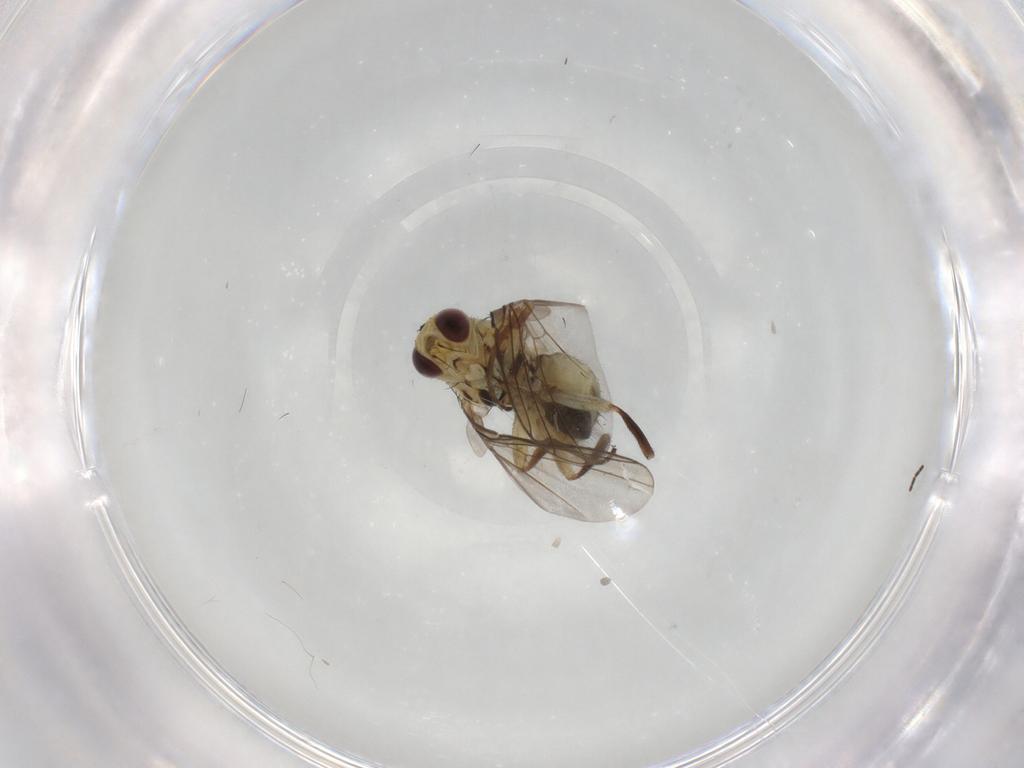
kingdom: Animalia
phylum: Arthropoda
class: Insecta
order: Diptera
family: Agromyzidae
